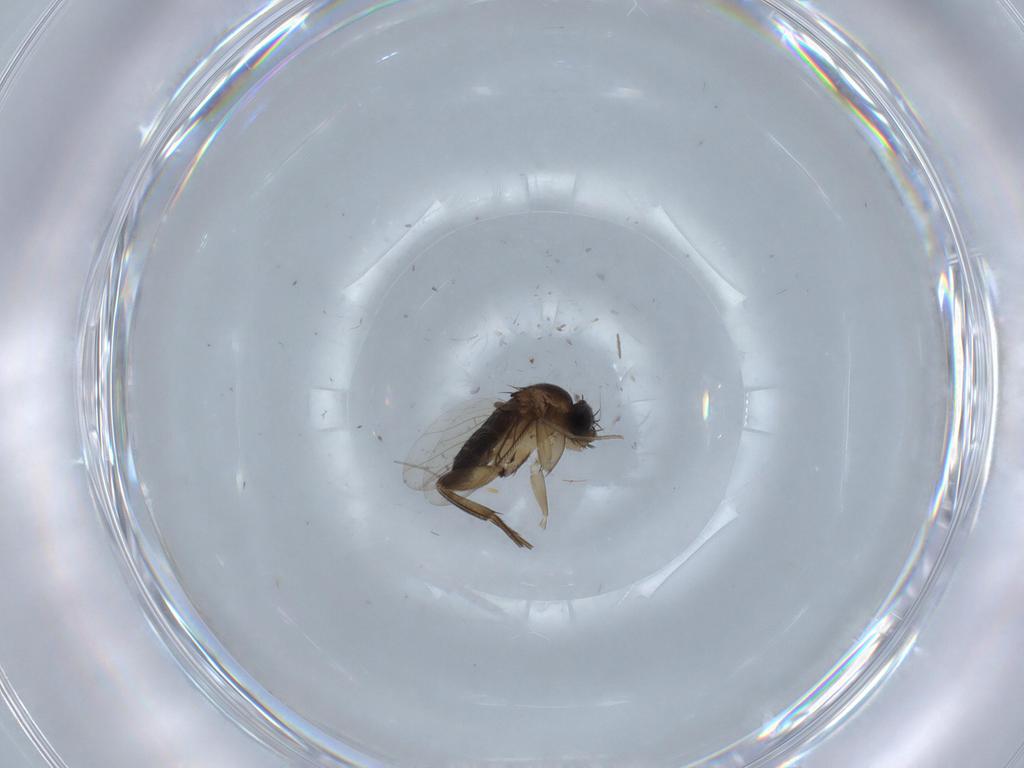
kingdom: Animalia
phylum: Arthropoda
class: Insecta
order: Diptera
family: Phoridae
